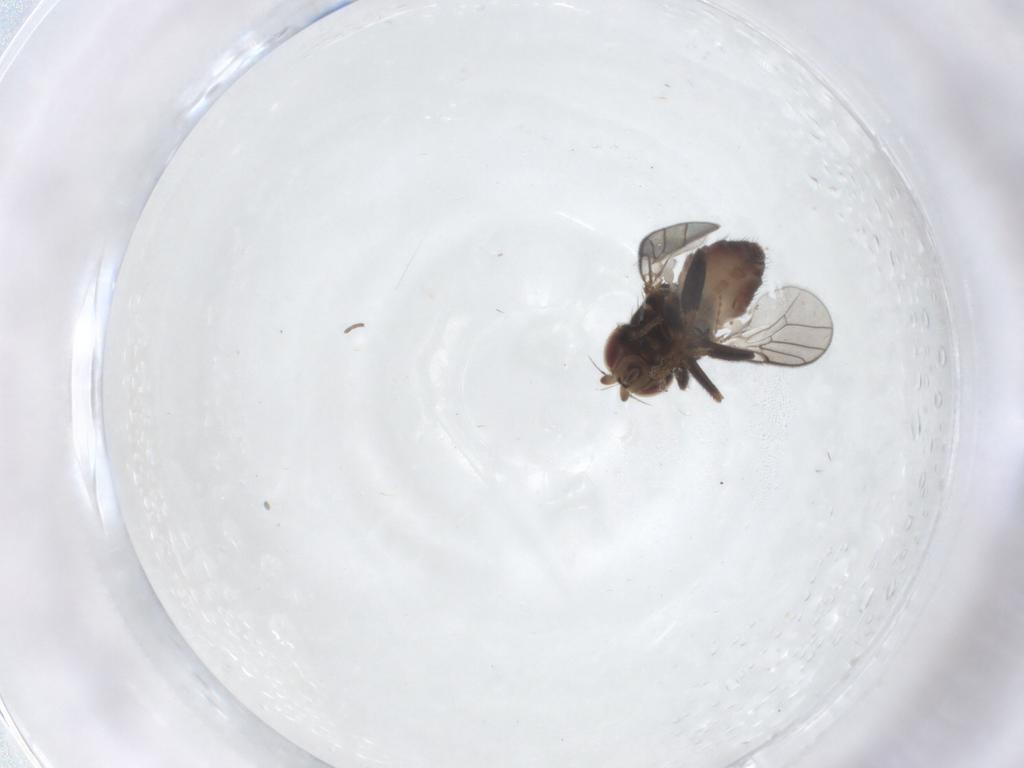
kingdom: Animalia
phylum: Arthropoda
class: Insecta
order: Diptera
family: Chloropidae
